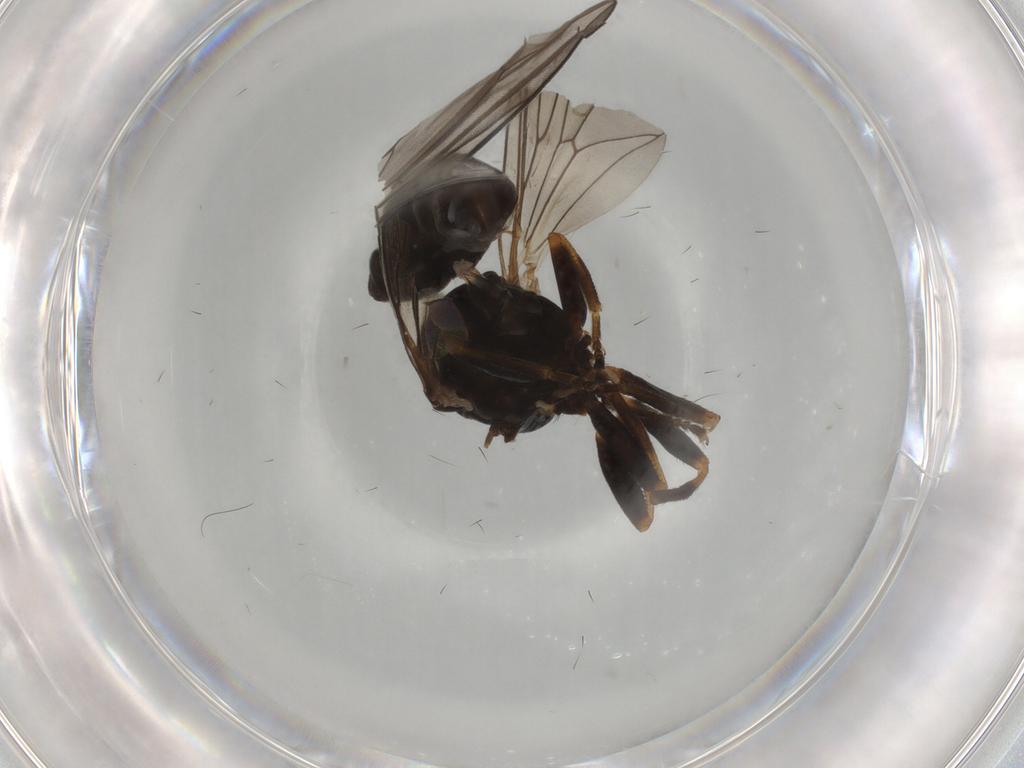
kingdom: Animalia
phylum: Arthropoda
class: Insecta
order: Diptera
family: Pipunculidae
